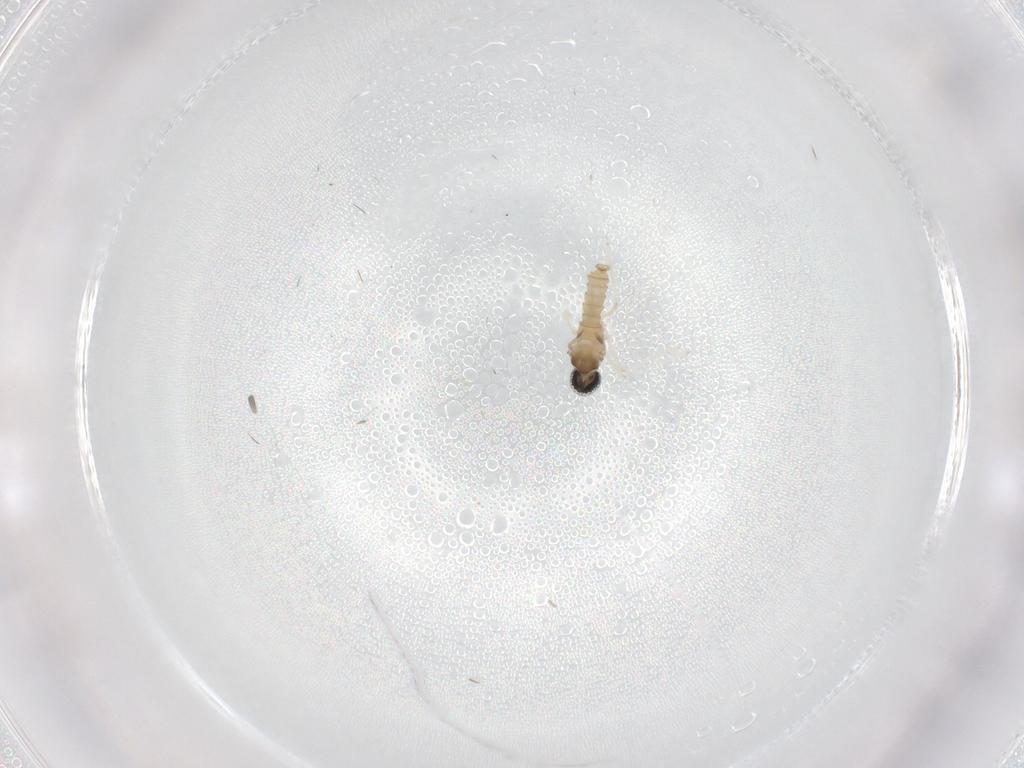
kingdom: Animalia
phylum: Arthropoda
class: Insecta
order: Diptera
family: Cecidomyiidae
